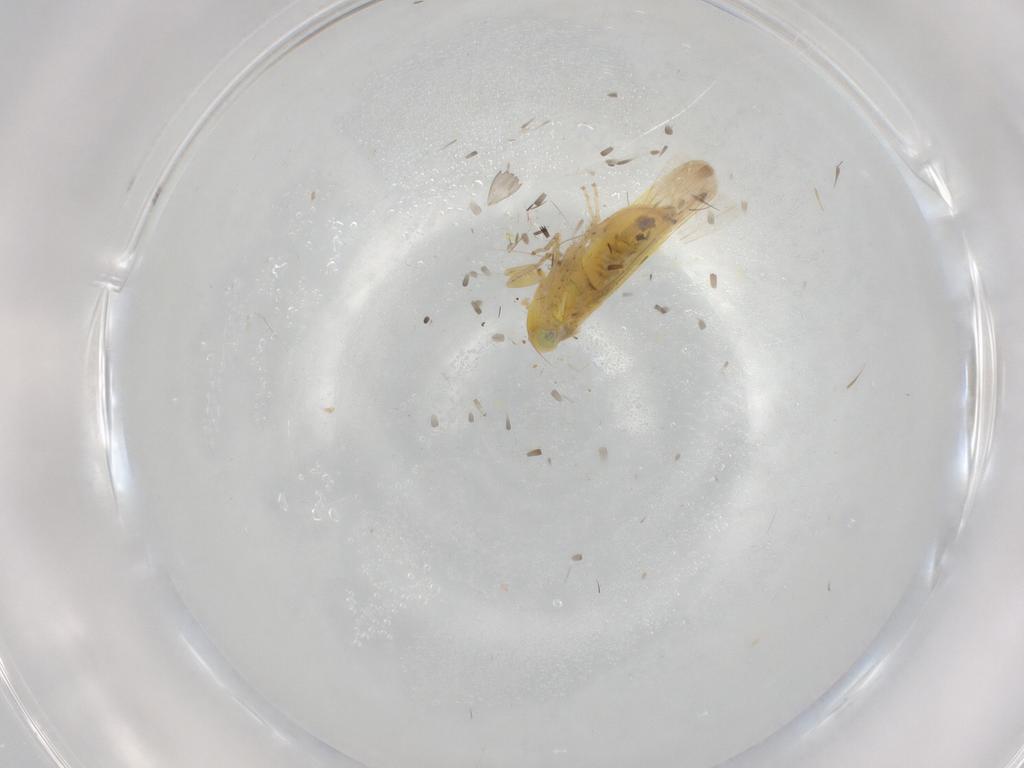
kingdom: Animalia
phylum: Arthropoda
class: Insecta
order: Hemiptera
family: Cicadellidae
